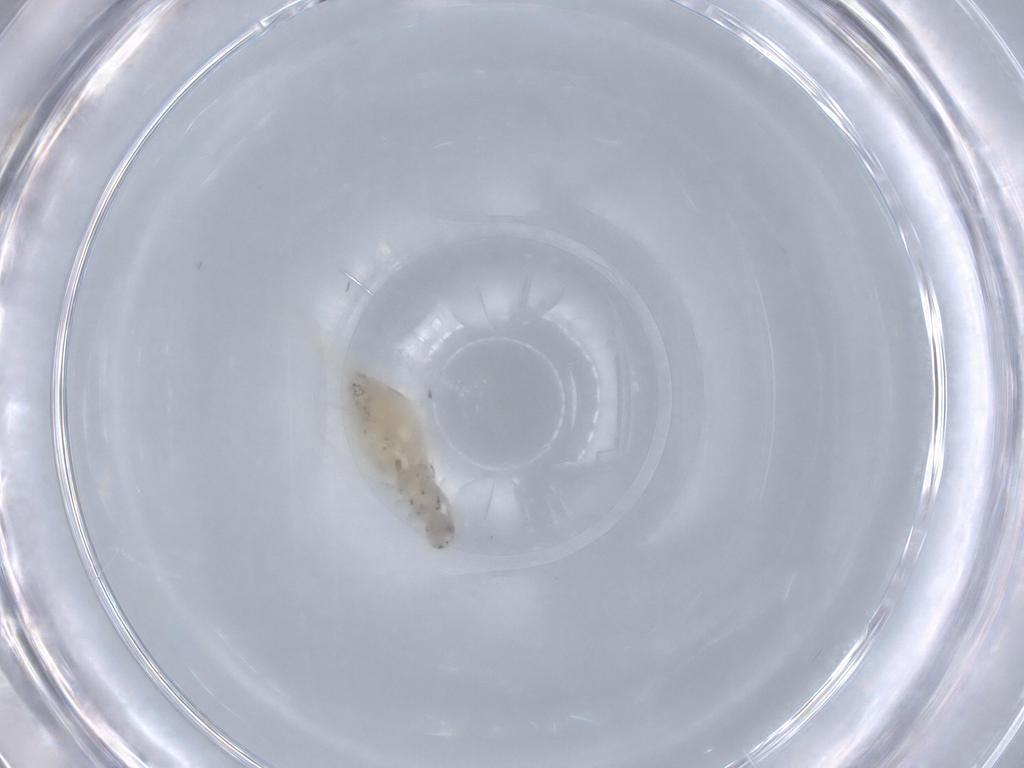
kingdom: Animalia
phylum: Arthropoda
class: Collembola
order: Entomobryomorpha
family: Paronellidae
